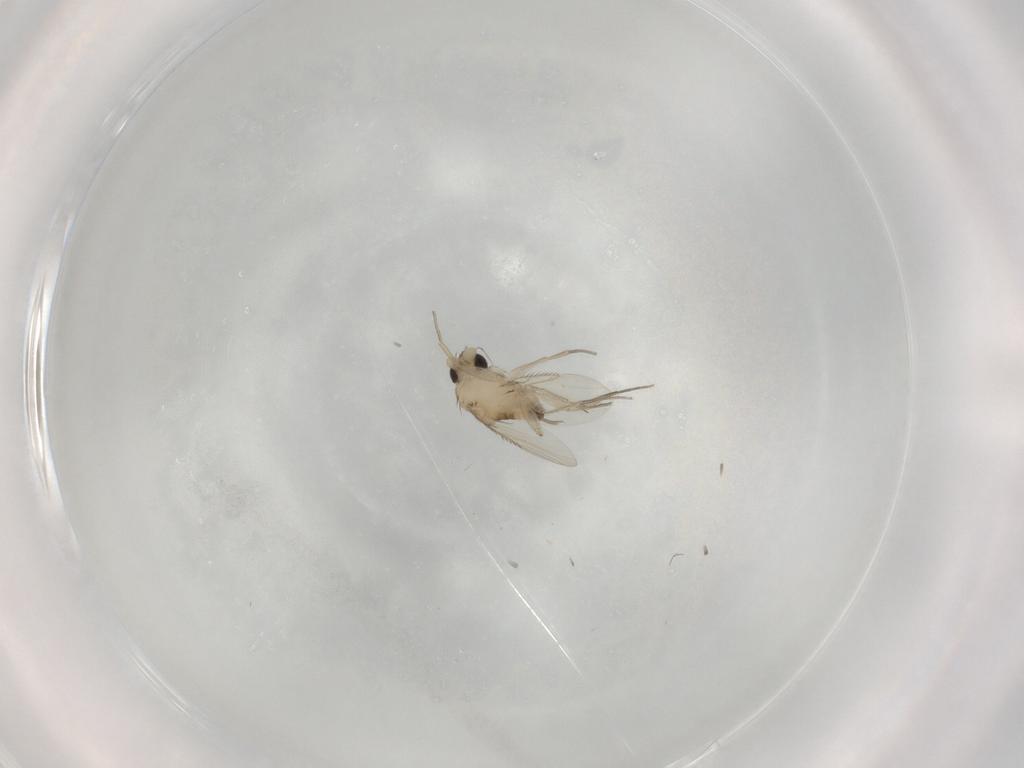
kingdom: Animalia
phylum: Arthropoda
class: Insecta
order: Diptera
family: Phoridae
